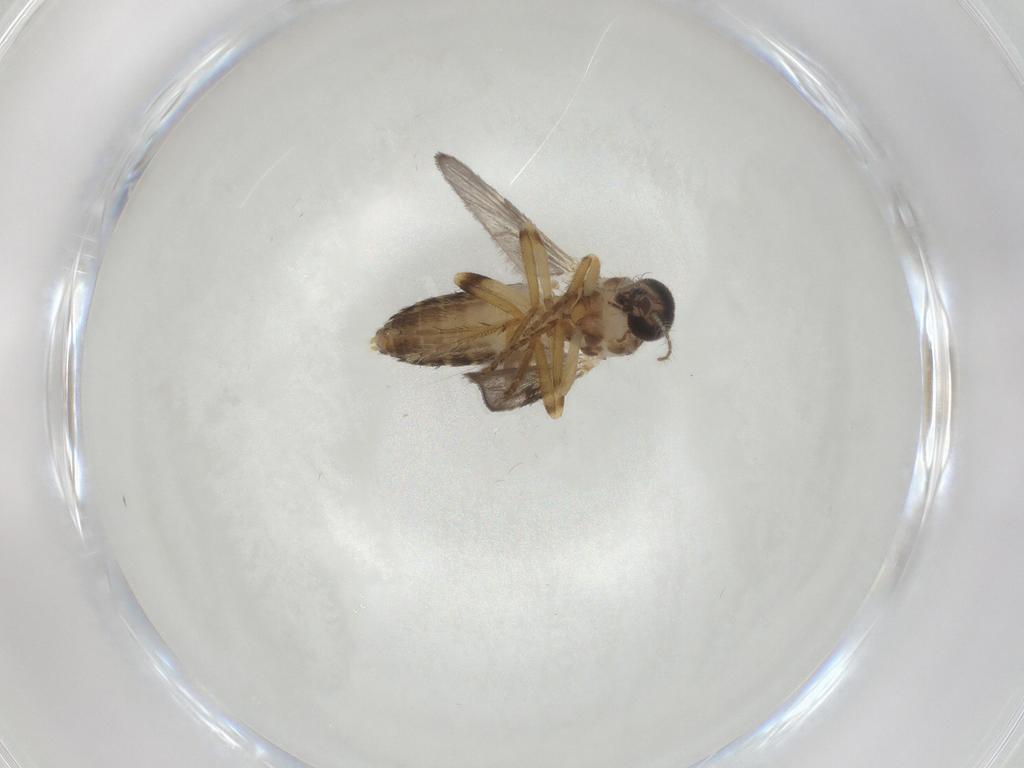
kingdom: Animalia
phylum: Arthropoda
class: Insecta
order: Diptera
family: Ceratopogonidae
